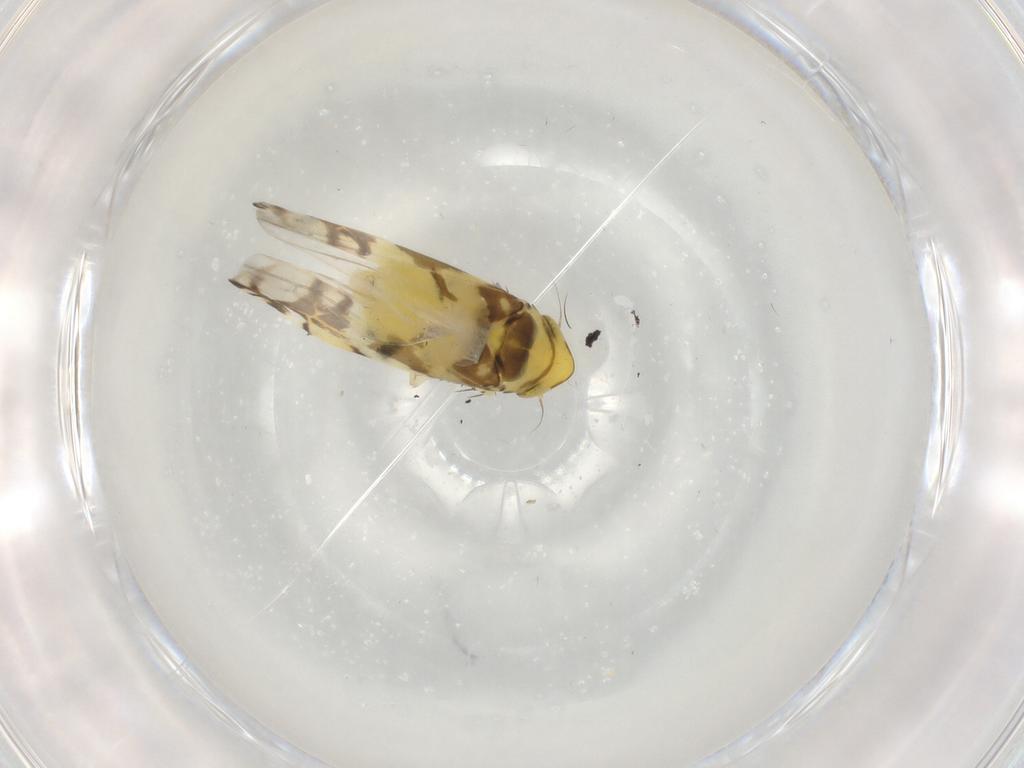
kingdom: Animalia
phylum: Arthropoda
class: Insecta
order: Hemiptera
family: Cicadellidae
